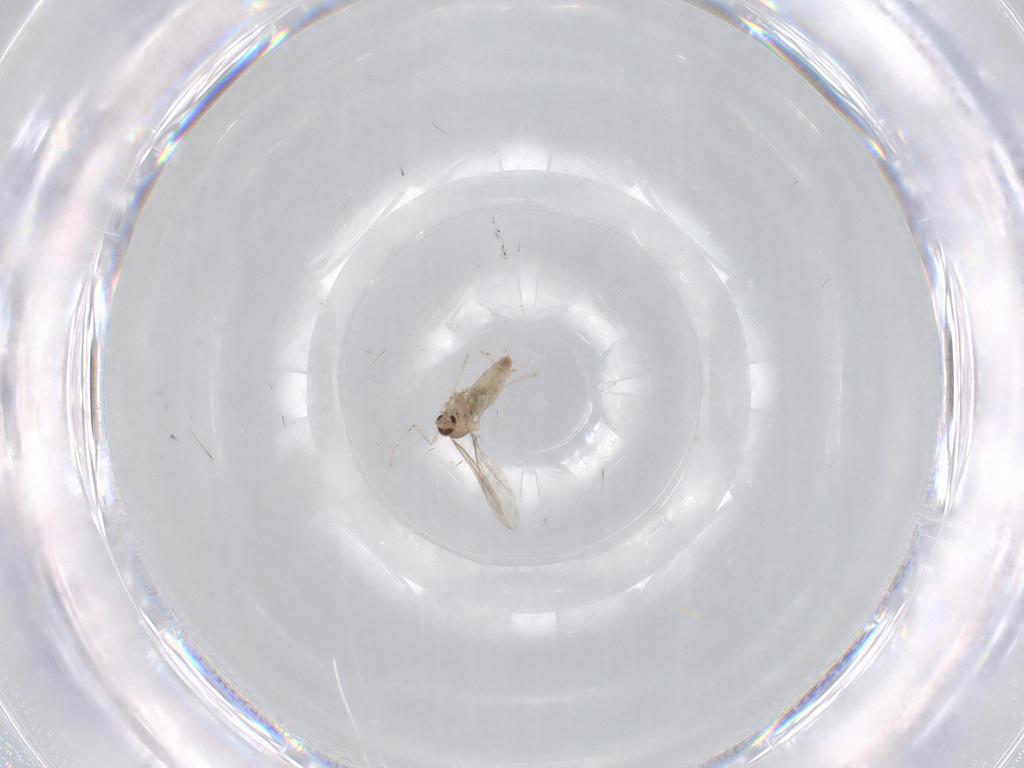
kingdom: Animalia
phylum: Arthropoda
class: Insecta
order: Diptera
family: Cecidomyiidae
